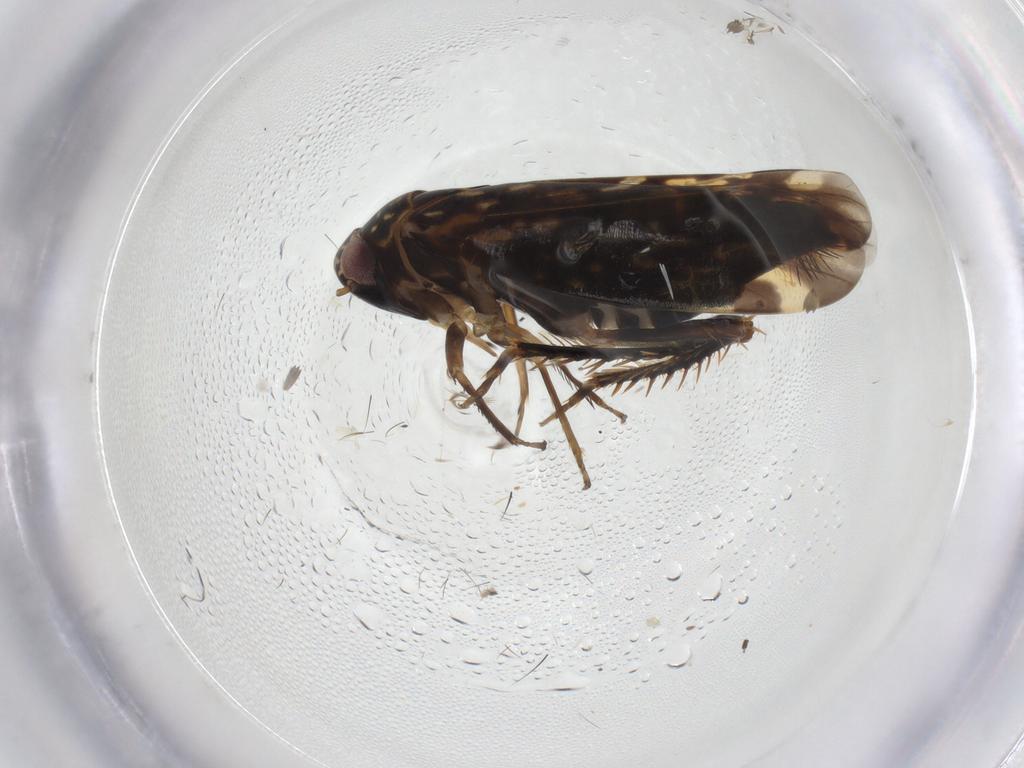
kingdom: Animalia
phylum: Arthropoda
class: Insecta
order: Hemiptera
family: Cicadellidae
